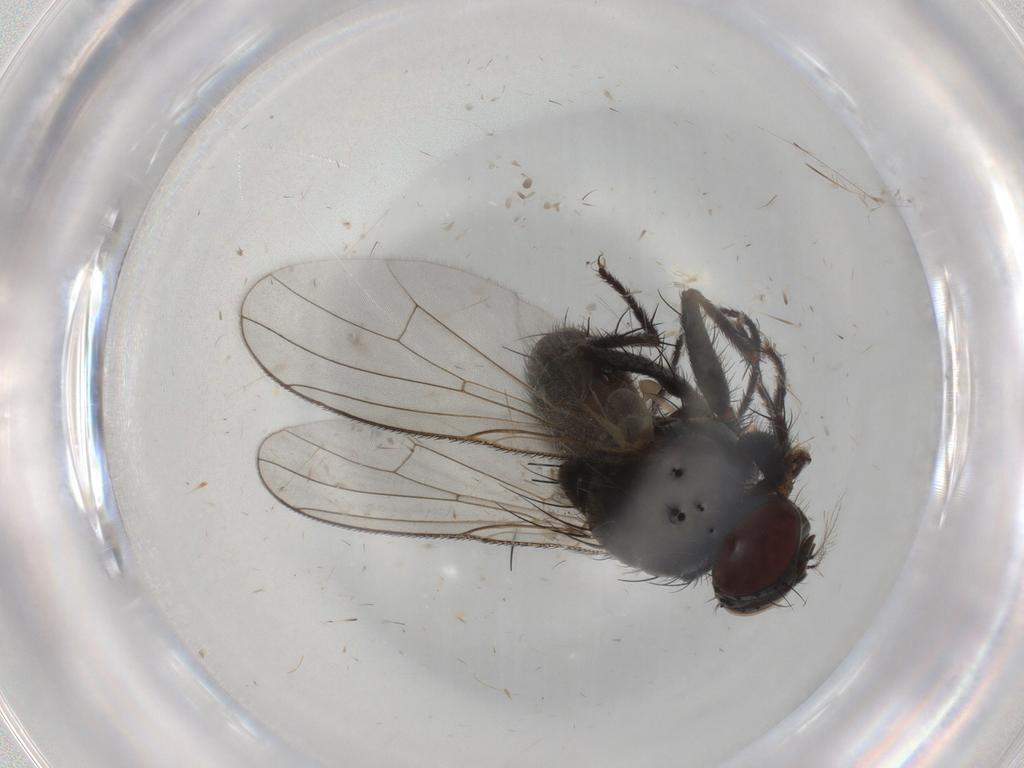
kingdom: Animalia
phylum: Arthropoda
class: Insecta
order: Diptera
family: Muscidae
